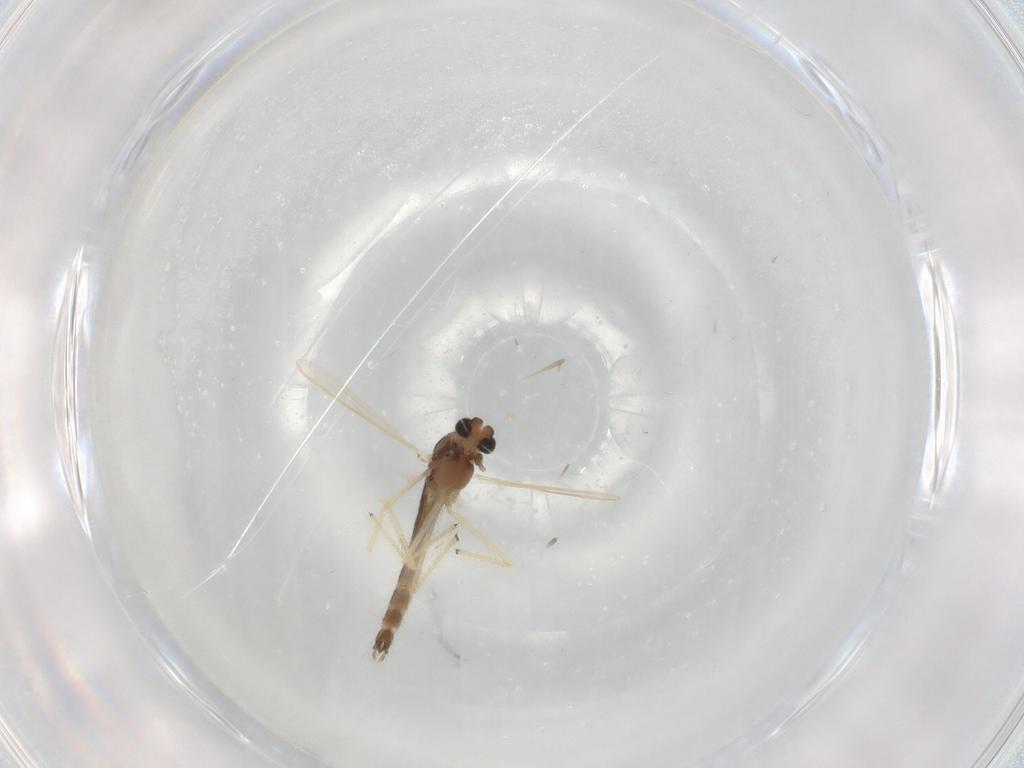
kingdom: Animalia
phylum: Arthropoda
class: Insecta
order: Diptera
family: Chironomidae
